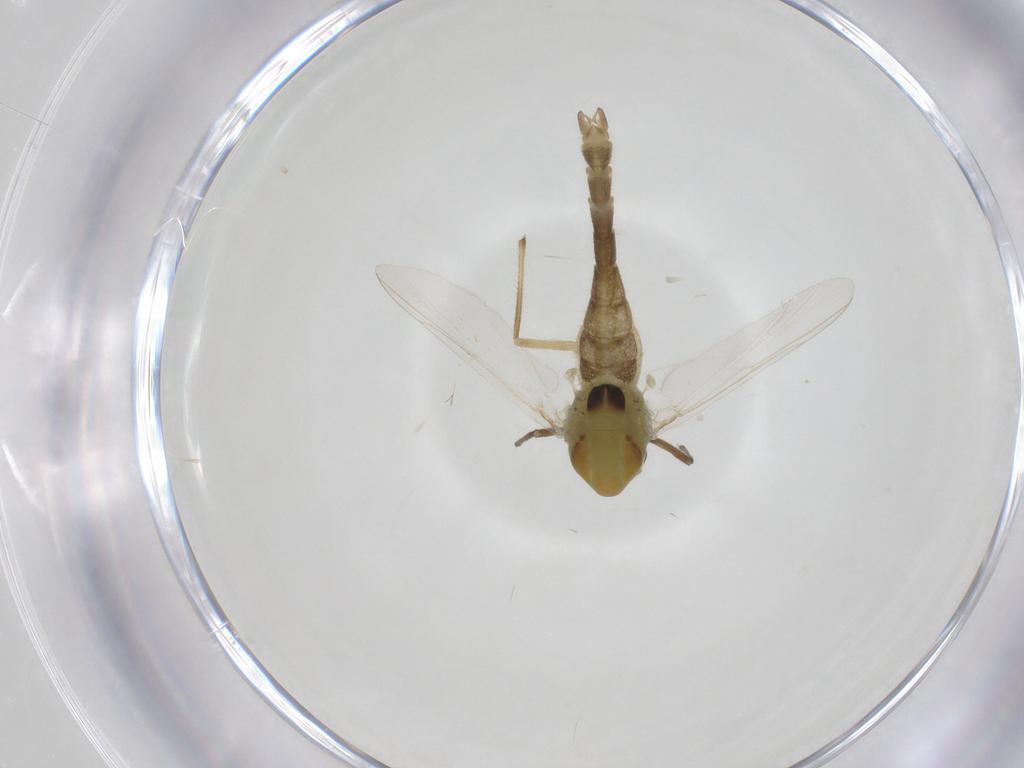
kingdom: Animalia
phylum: Arthropoda
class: Insecta
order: Diptera
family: Chironomidae
